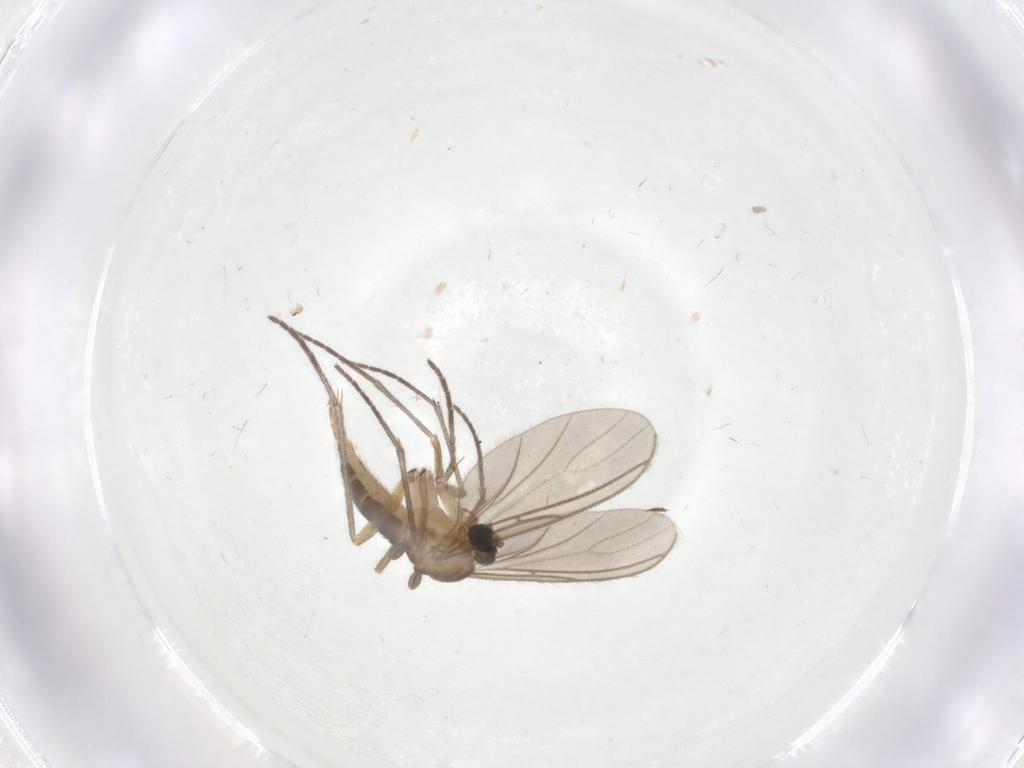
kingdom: Animalia
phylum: Arthropoda
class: Insecta
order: Diptera
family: Sciaridae
